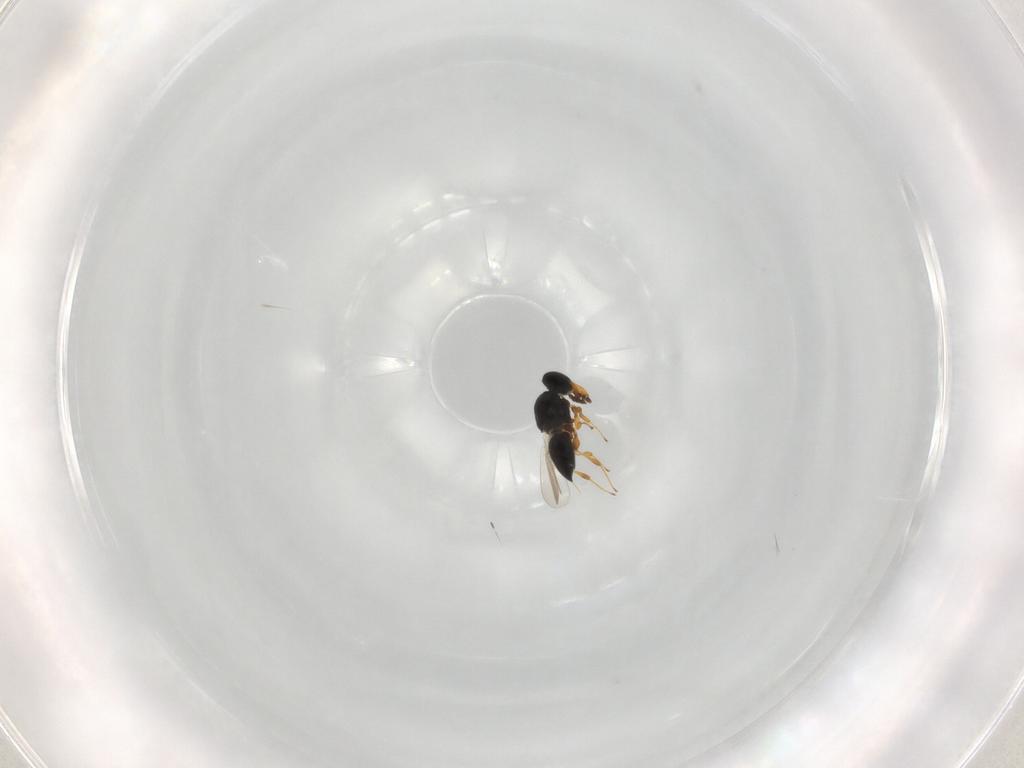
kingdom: Animalia
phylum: Arthropoda
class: Insecta
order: Hymenoptera
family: Platygastridae
